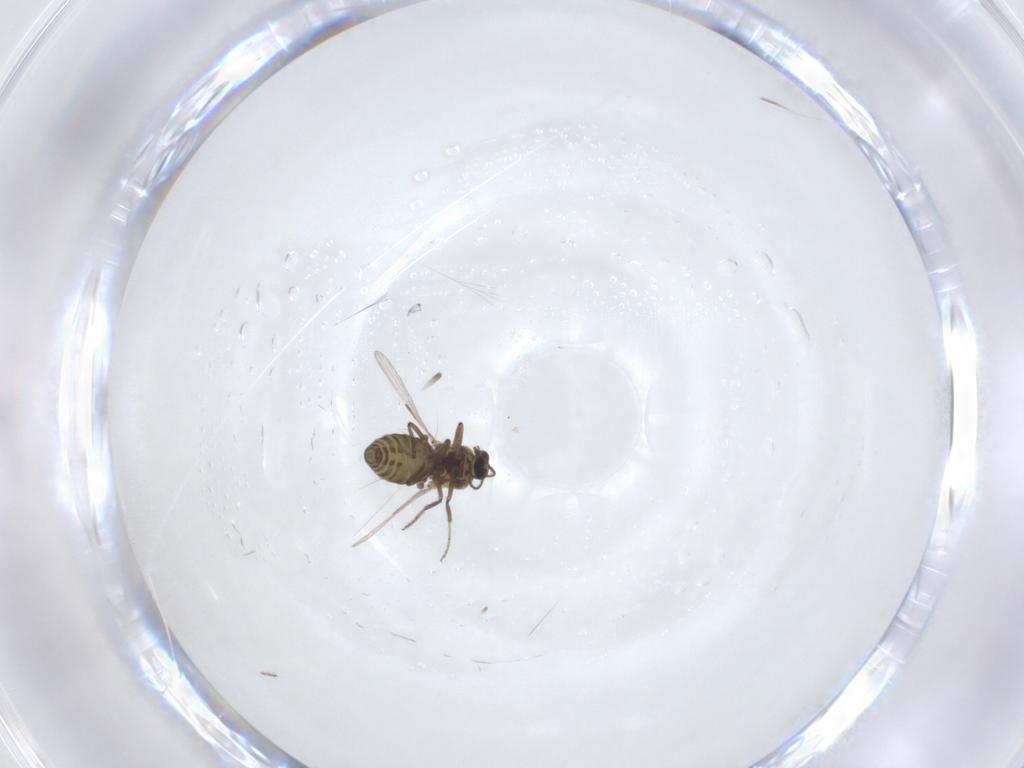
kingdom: Animalia
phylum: Arthropoda
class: Insecta
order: Diptera
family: Ceratopogonidae
